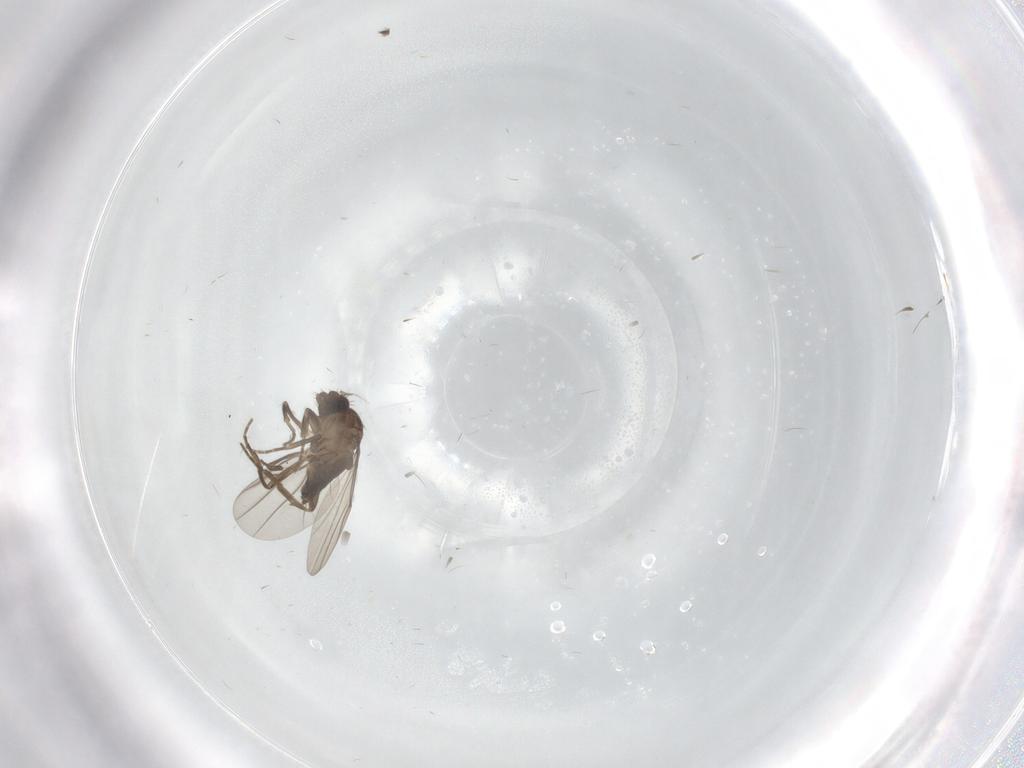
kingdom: Animalia
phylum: Arthropoda
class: Insecta
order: Diptera
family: Phoridae
